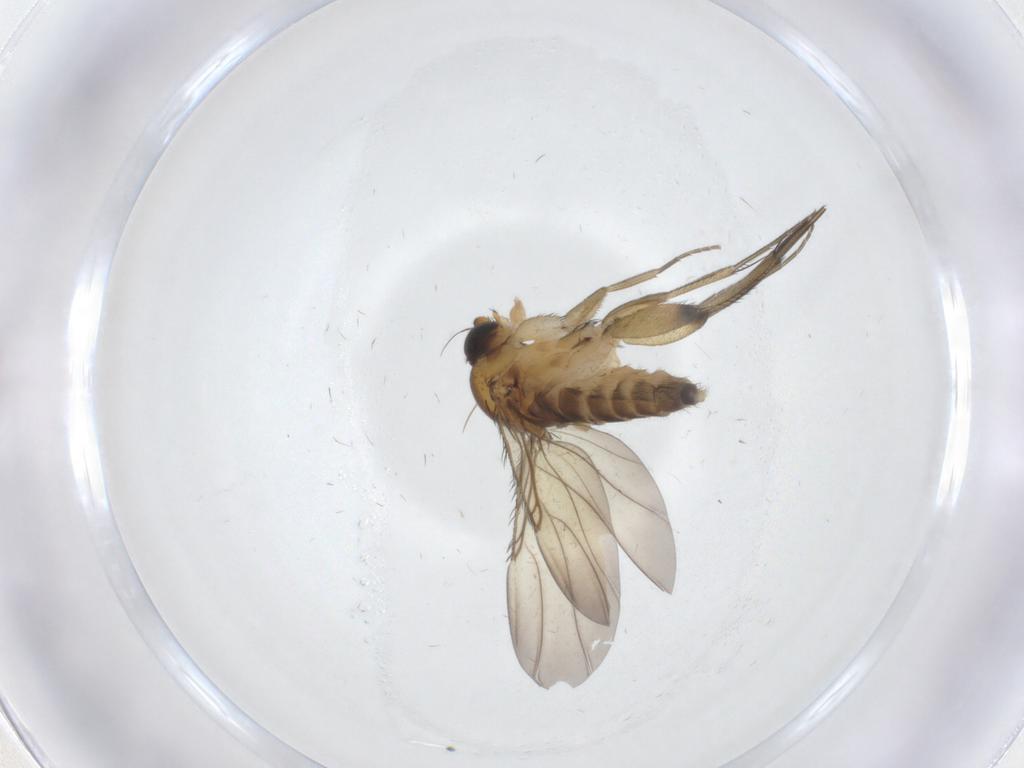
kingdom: Animalia
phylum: Arthropoda
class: Insecta
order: Diptera
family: Phoridae
